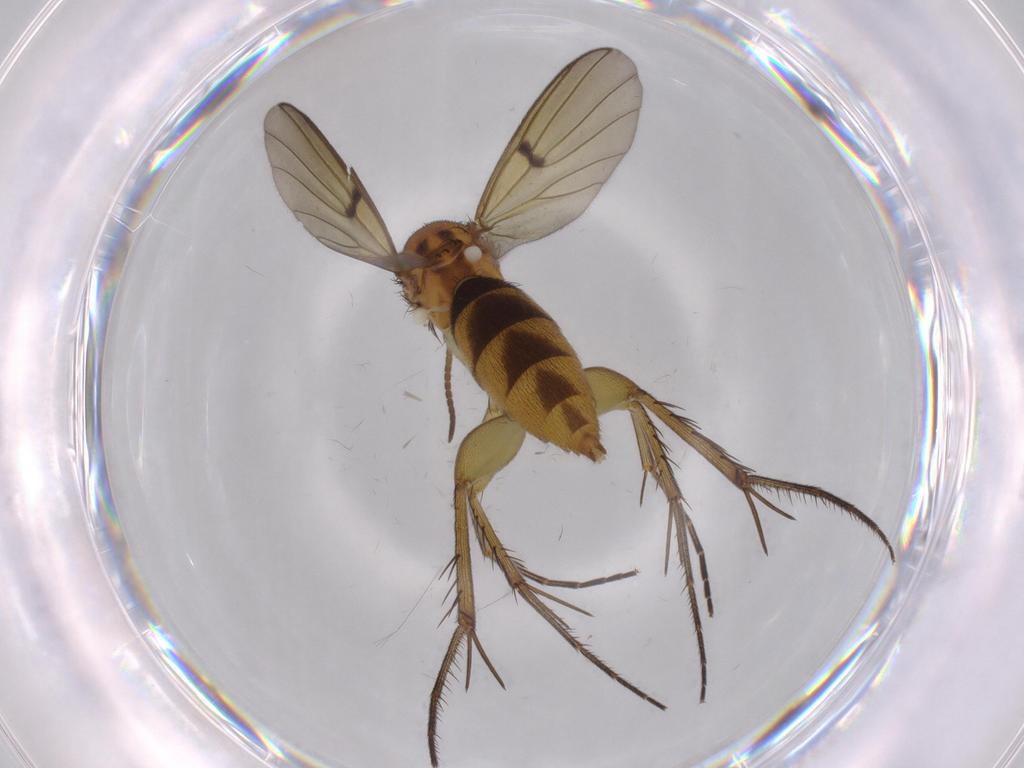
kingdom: Animalia
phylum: Arthropoda
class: Insecta
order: Diptera
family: Mycetophilidae
